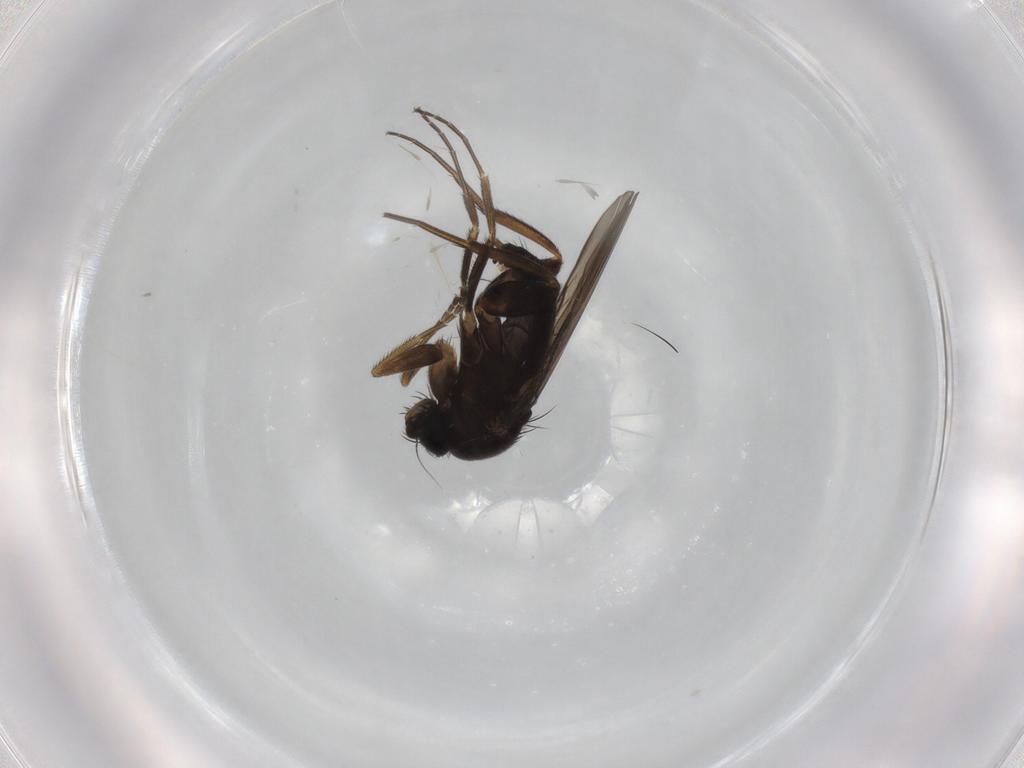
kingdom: Animalia
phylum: Arthropoda
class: Insecta
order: Diptera
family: Phoridae
